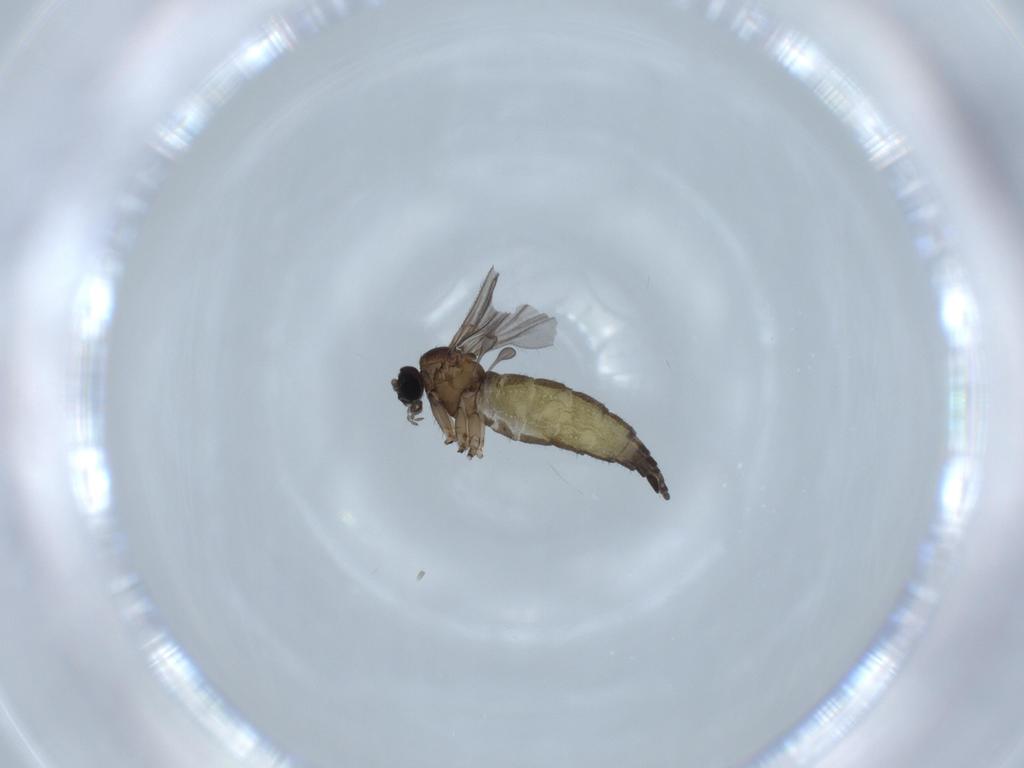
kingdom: Animalia
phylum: Arthropoda
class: Insecta
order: Diptera
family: Sciaridae
